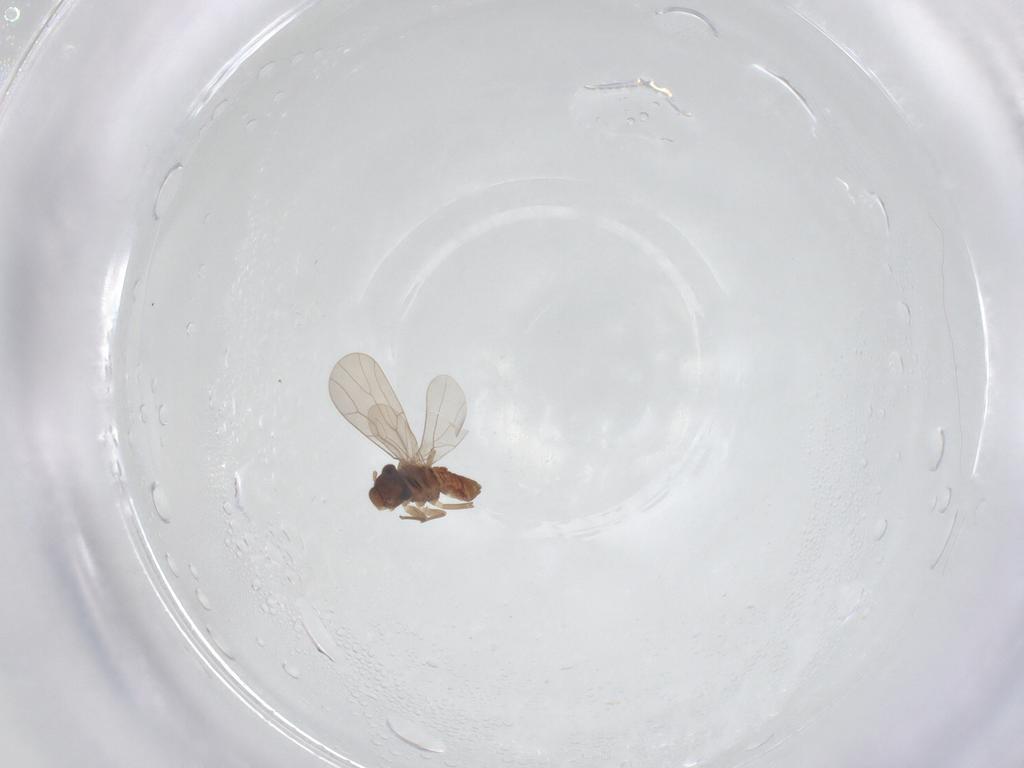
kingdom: Animalia
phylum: Arthropoda
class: Insecta
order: Psocodea
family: Lepidopsocidae
